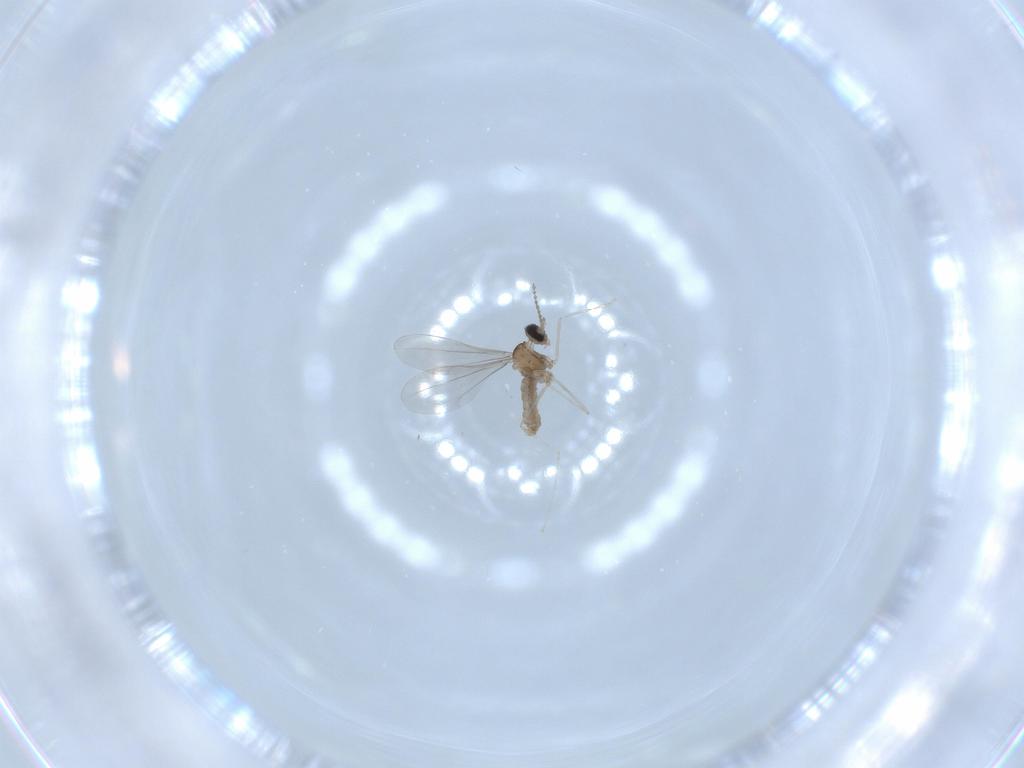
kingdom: Animalia
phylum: Arthropoda
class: Insecta
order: Diptera
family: Cecidomyiidae
